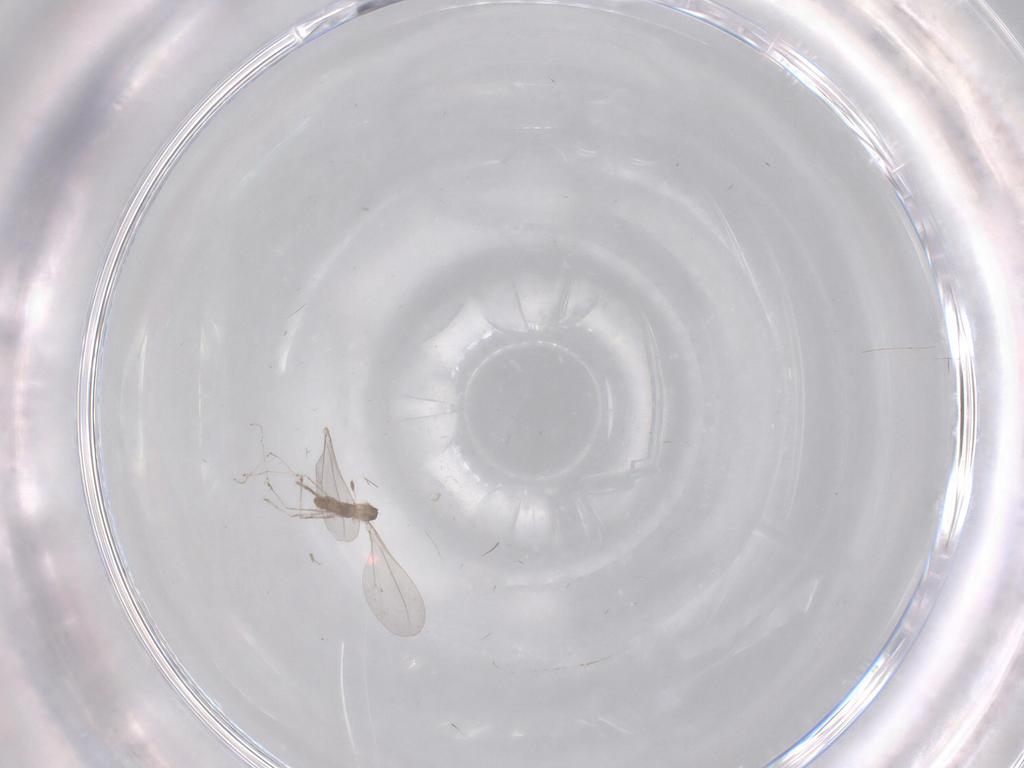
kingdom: Animalia
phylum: Arthropoda
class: Insecta
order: Diptera
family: Cecidomyiidae
